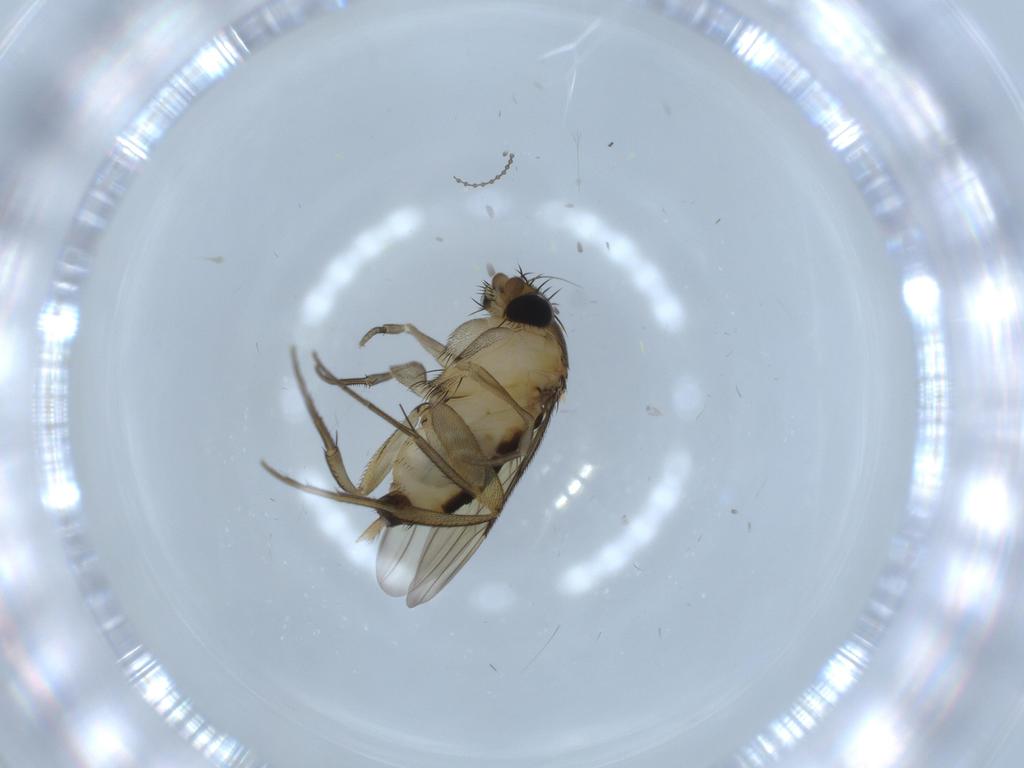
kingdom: Animalia
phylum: Arthropoda
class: Insecta
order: Diptera
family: Phoridae
